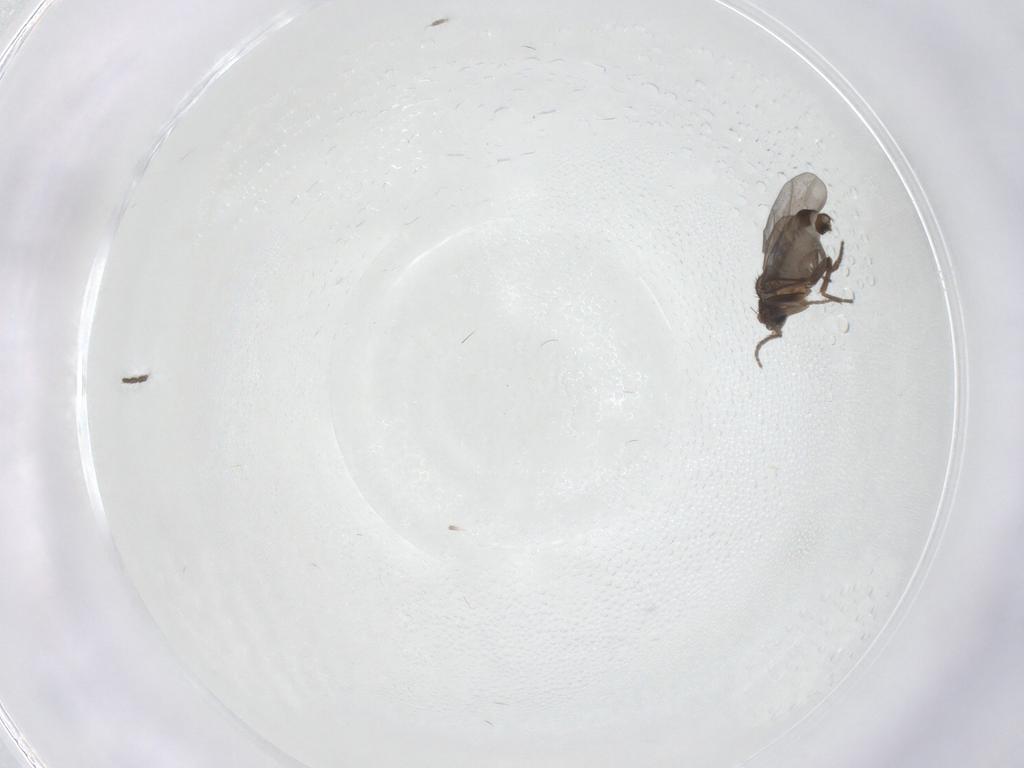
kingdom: Animalia
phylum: Arthropoda
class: Insecta
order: Diptera
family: Phoridae
